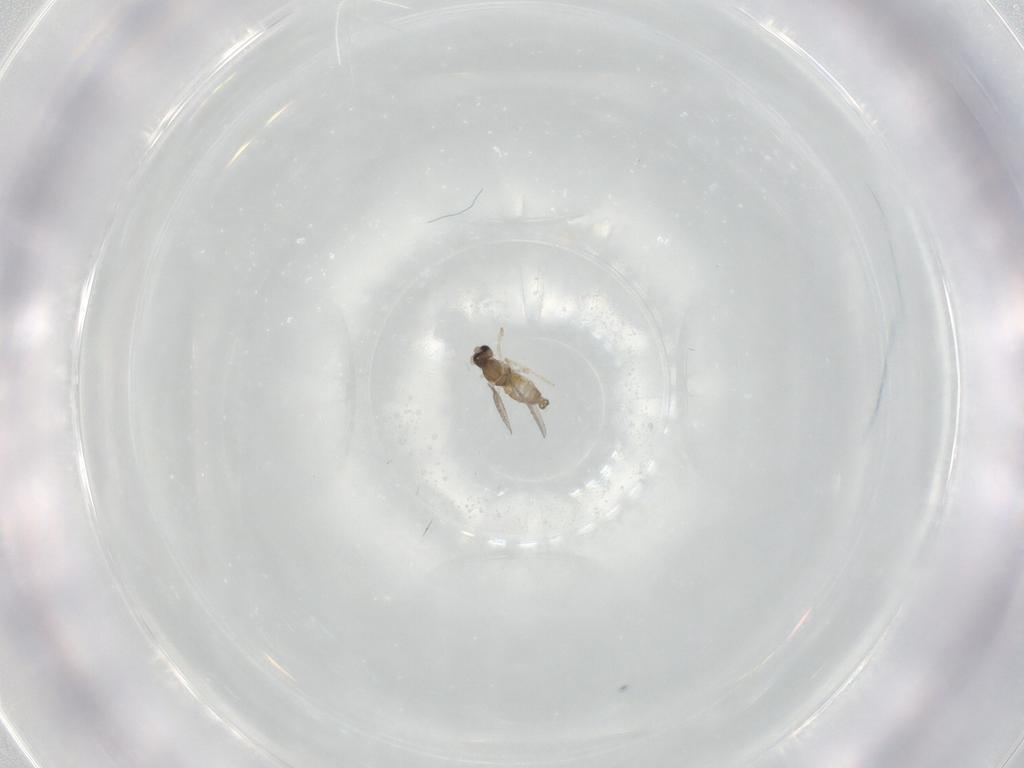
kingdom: Animalia
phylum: Arthropoda
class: Insecta
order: Diptera
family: Cecidomyiidae
